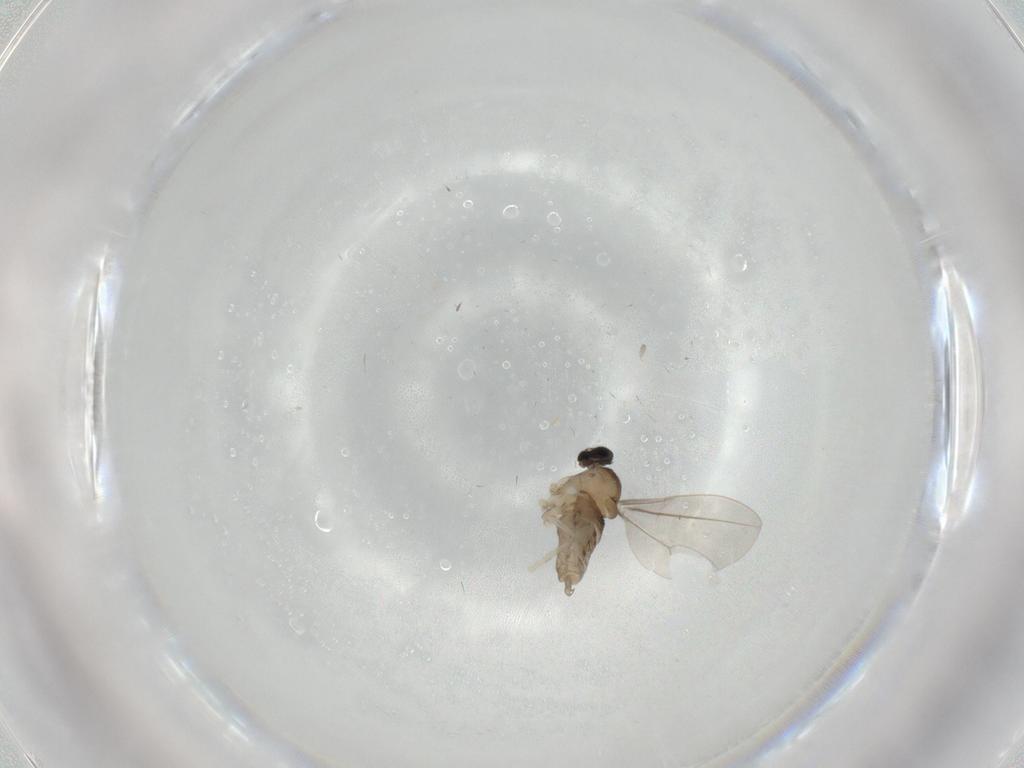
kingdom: Animalia
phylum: Arthropoda
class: Insecta
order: Diptera
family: Cecidomyiidae
